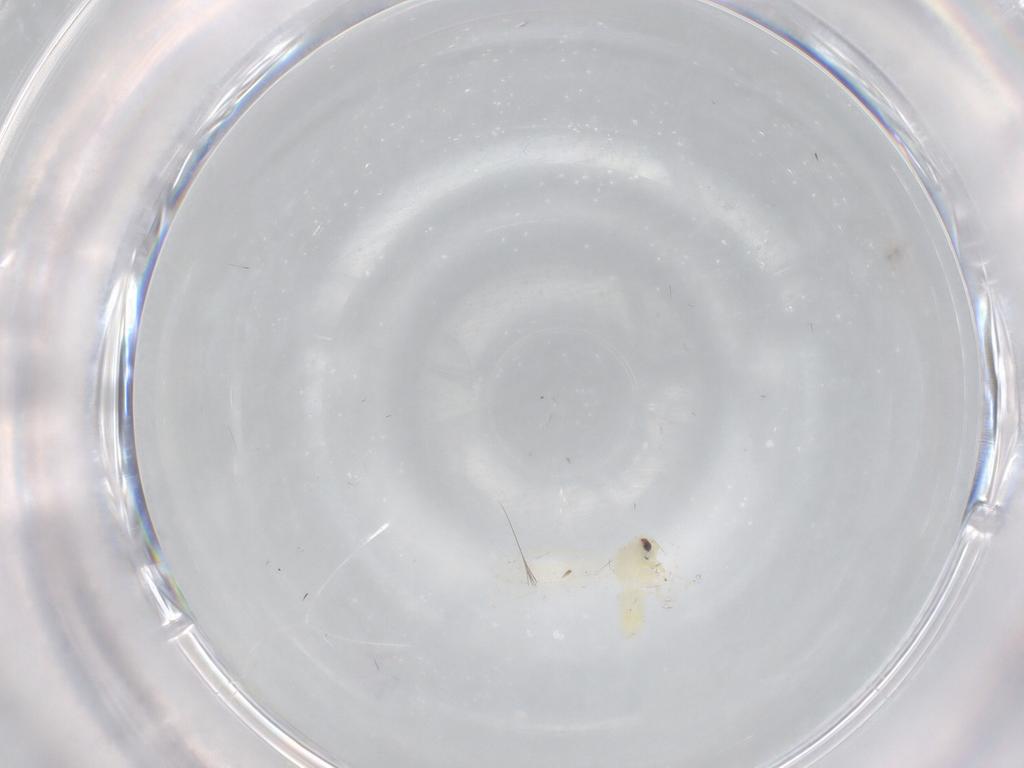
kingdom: Animalia
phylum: Arthropoda
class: Insecta
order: Hemiptera
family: Aleyrodidae
